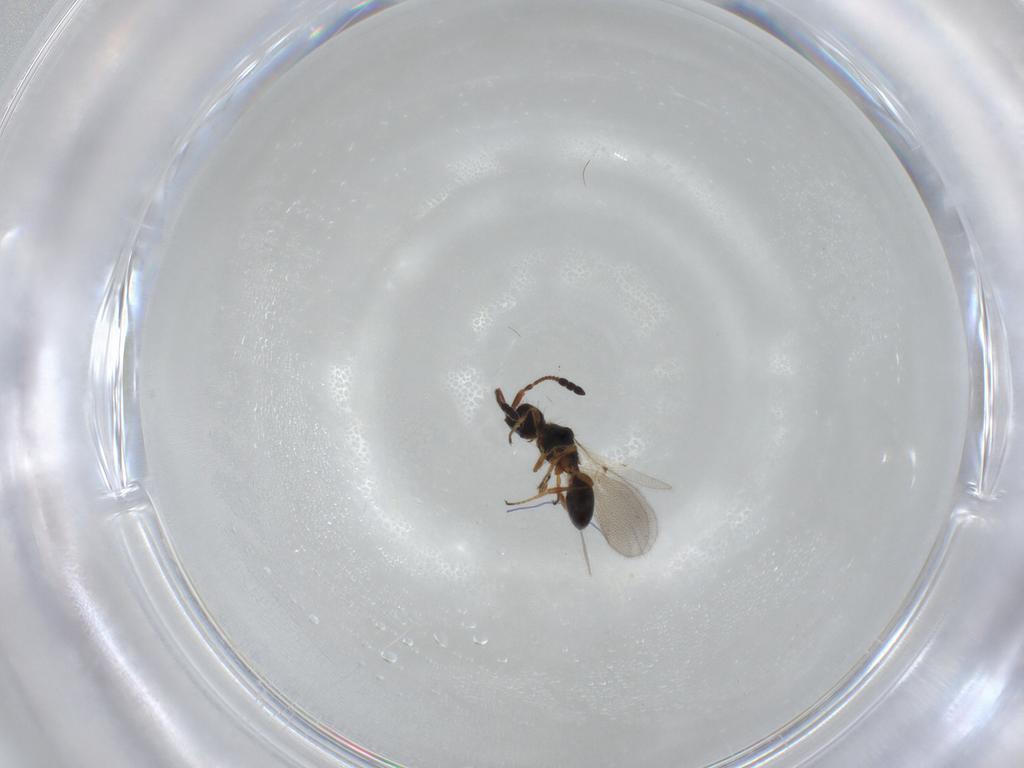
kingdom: Animalia
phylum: Arthropoda
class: Insecta
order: Hymenoptera
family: Diapriidae
